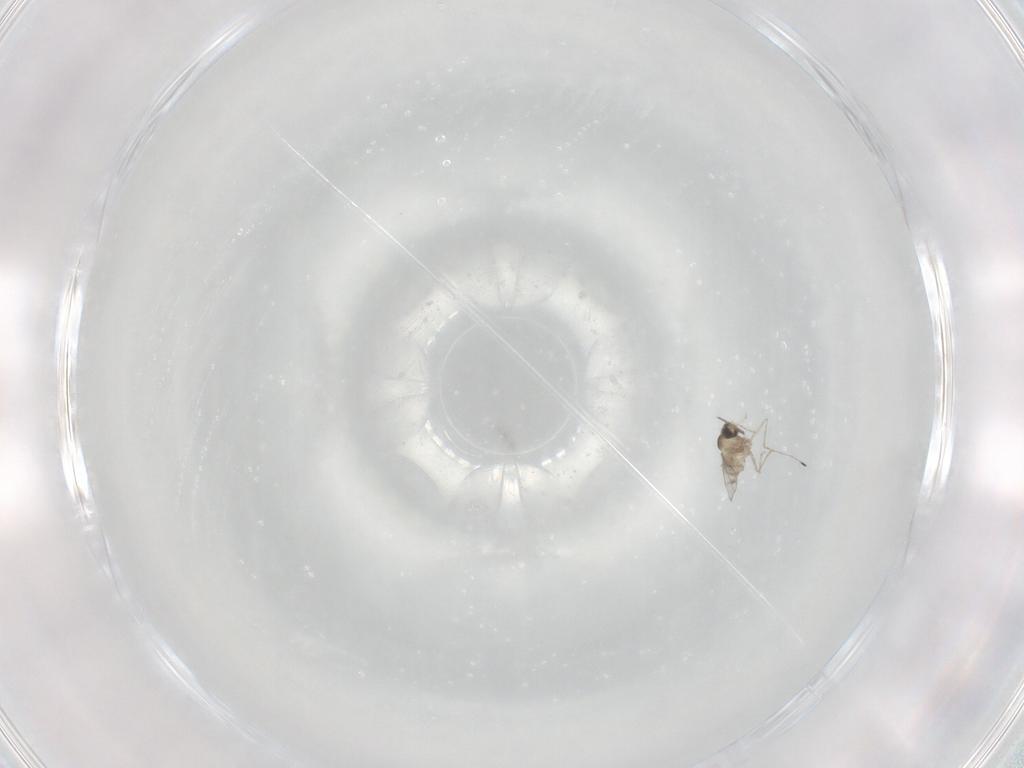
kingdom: Animalia
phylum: Arthropoda
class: Insecta
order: Diptera
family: Cecidomyiidae
